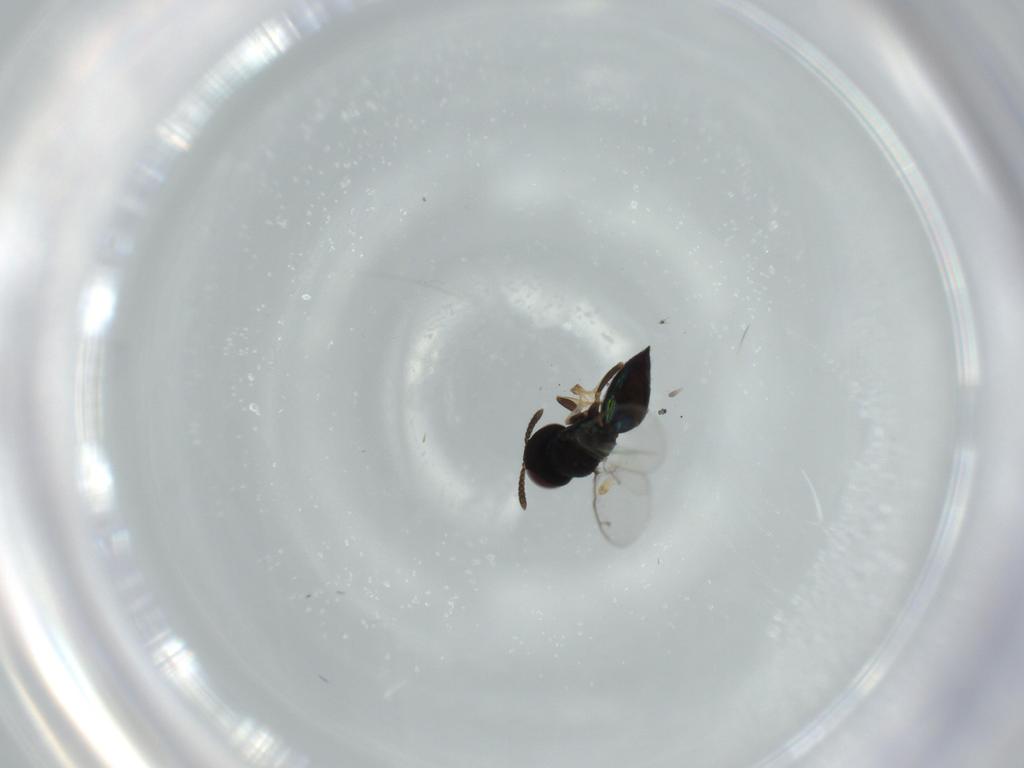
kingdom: Animalia
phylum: Arthropoda
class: Insecta
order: Hymenoptera
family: Pteromalidae
